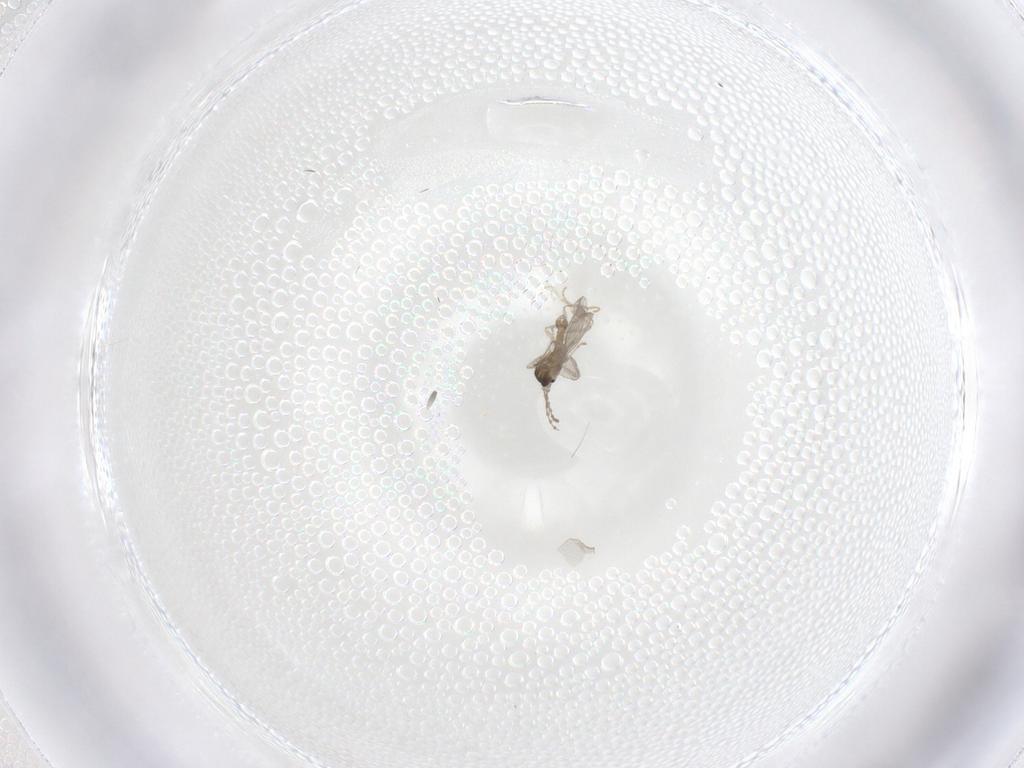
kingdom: Animalia
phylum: Arthropoda
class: Insecta
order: Diptera
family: Cecidomyiidae
